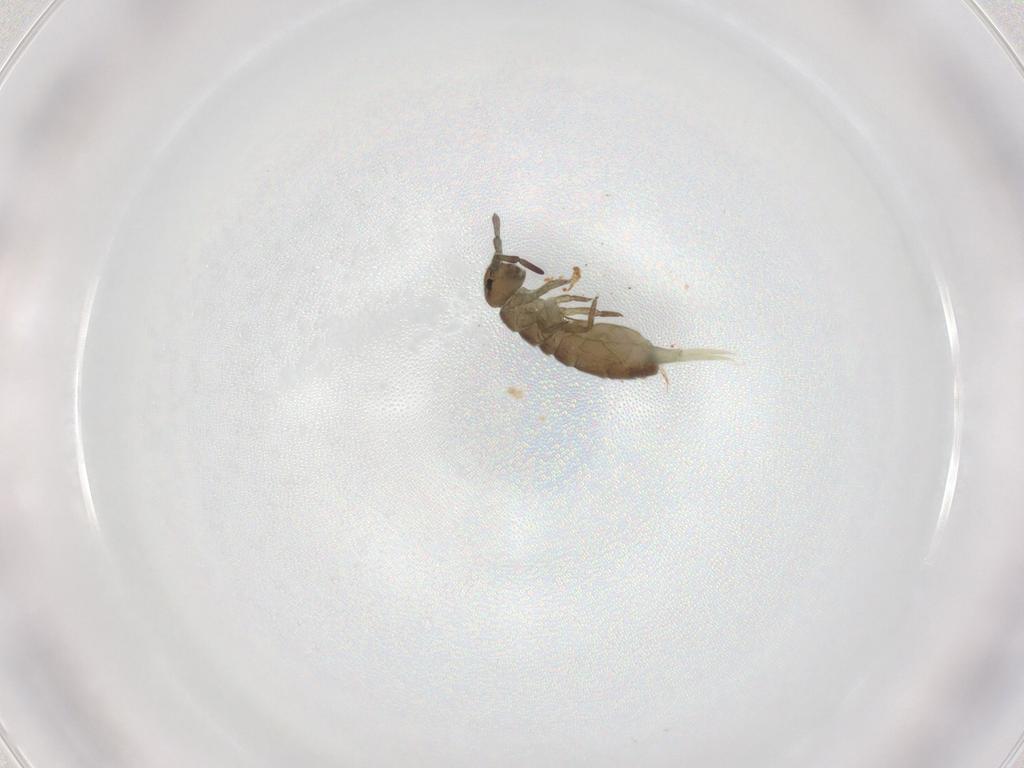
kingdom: Animalia
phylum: Arthropoda
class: Collembola
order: Entomobryomorpha
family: Isotomidae
